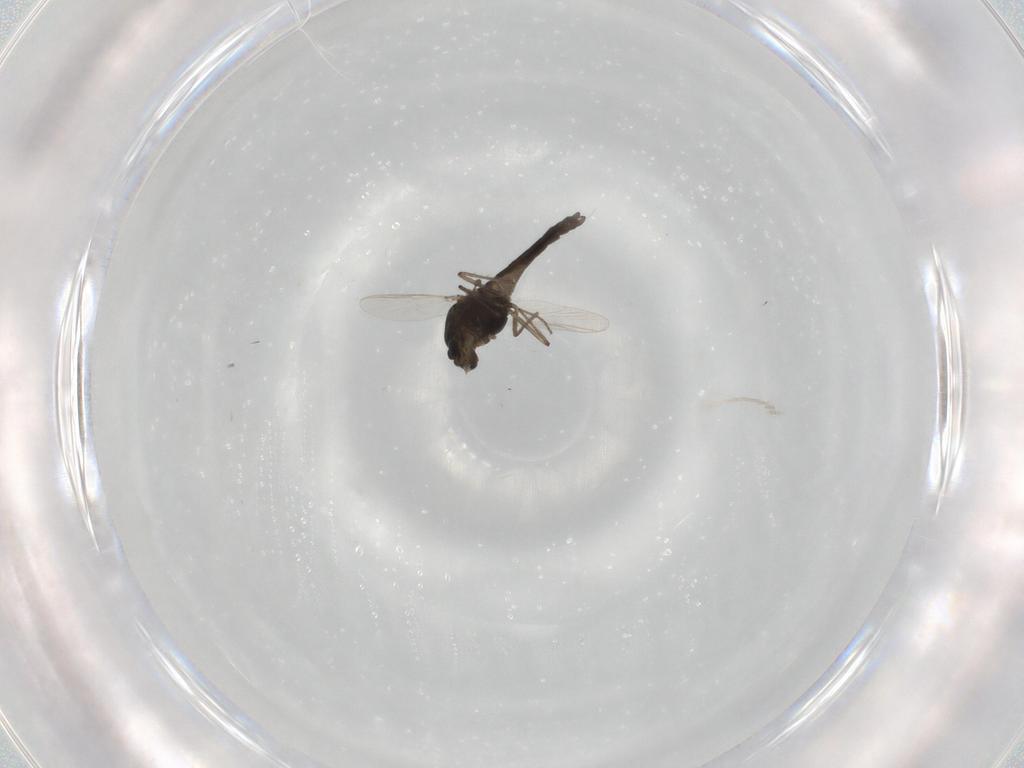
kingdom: Animalia
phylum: Arthropoda
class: Insecta
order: Diptera
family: Chironomidae
